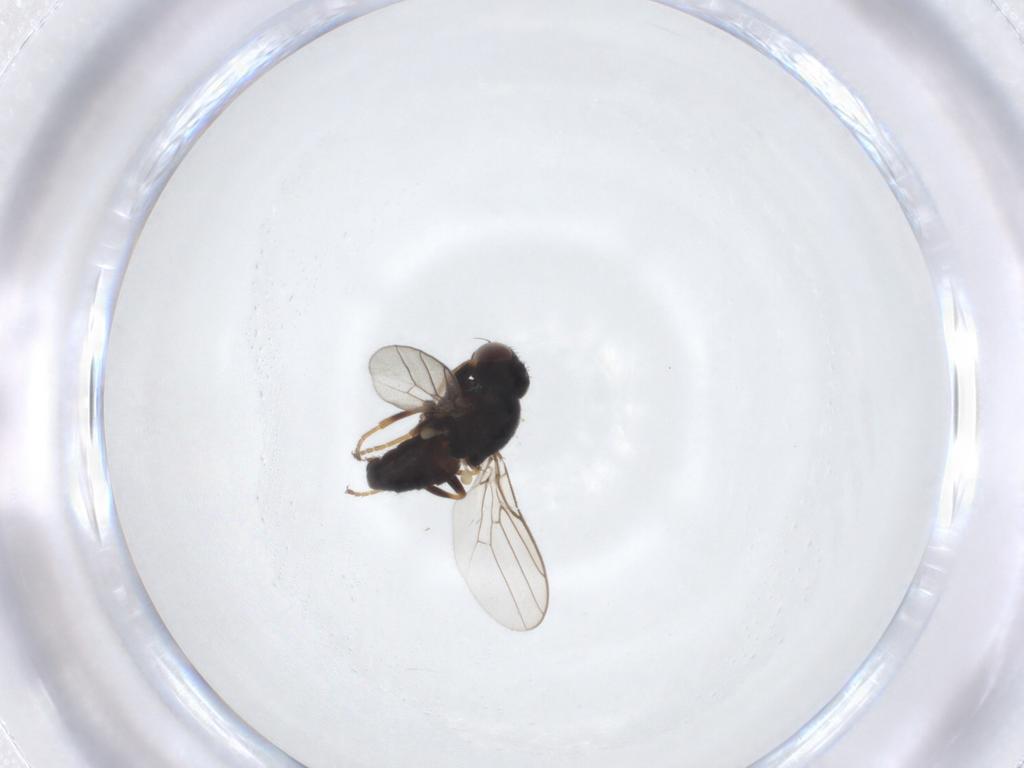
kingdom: Animalia
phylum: Arthropoda
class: Insecta
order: Diptera
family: Chloropidae
